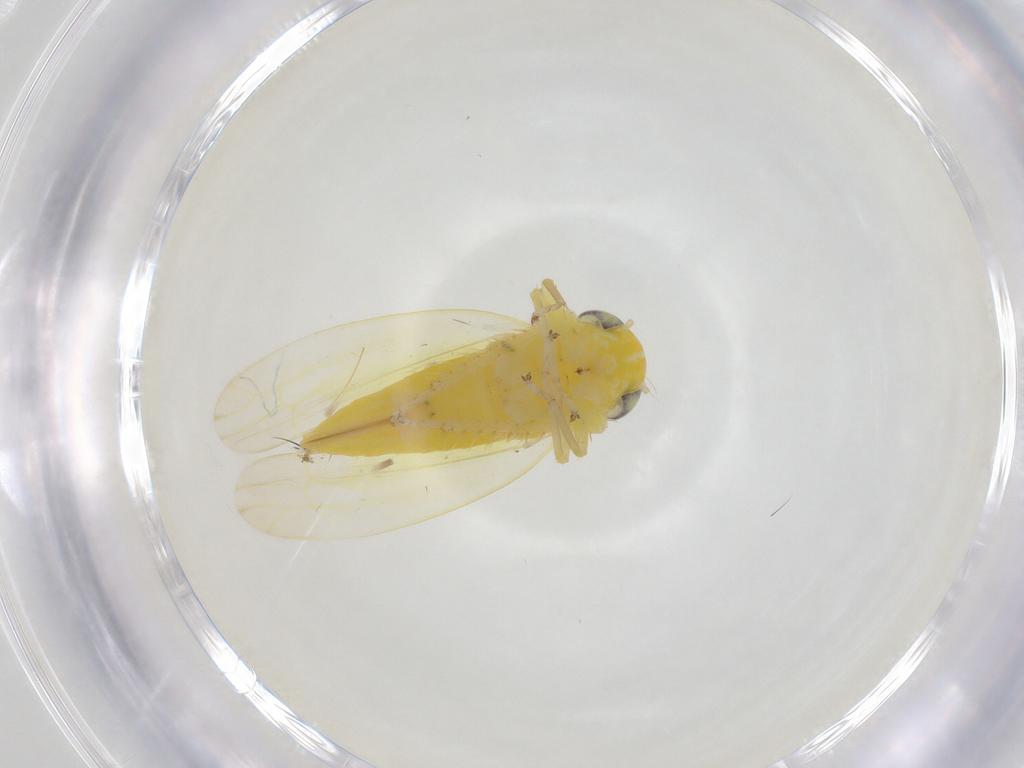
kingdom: Animalia
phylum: Arthropoda
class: Insecta
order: Hemiptera
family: Cicadellidae
